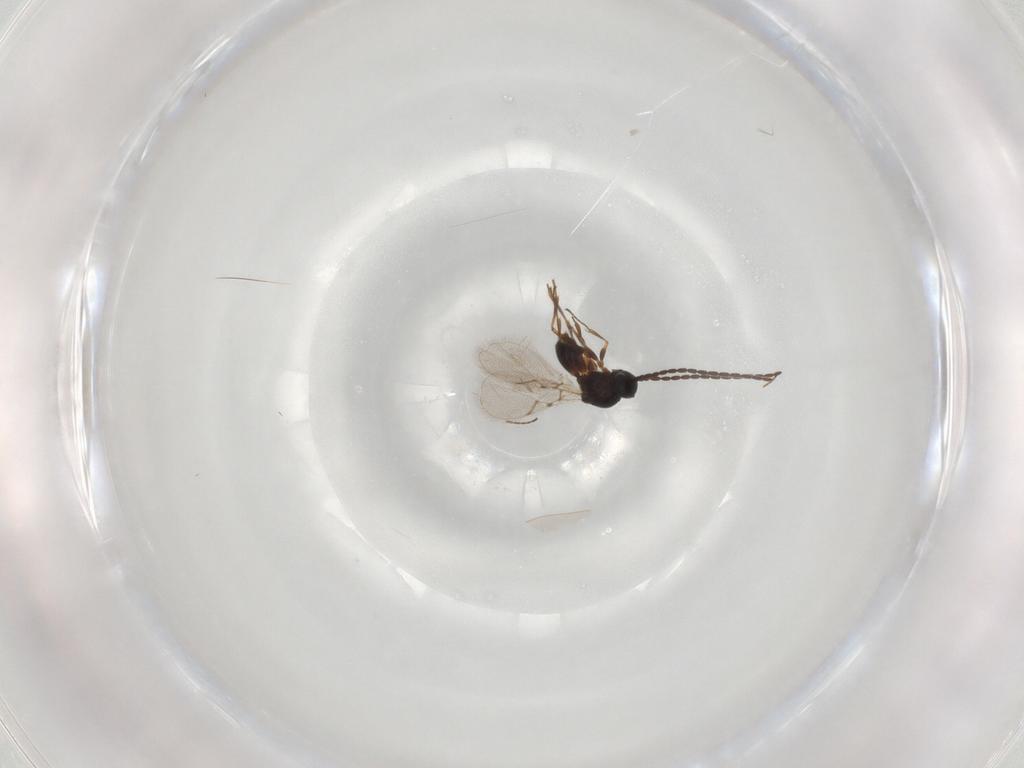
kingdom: Animalia
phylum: Arthropoda
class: Insecta
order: Hymenoptera
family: Figitidae
